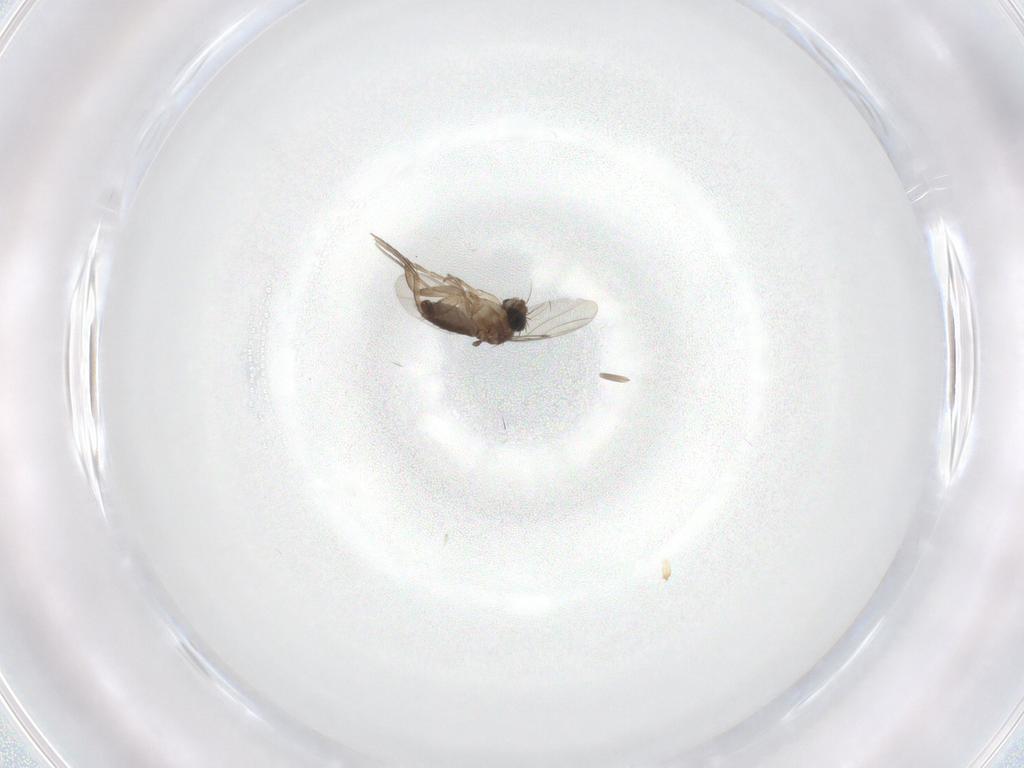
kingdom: Animalia
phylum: Arthropoda
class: Insecta
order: Diptera
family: Phoridae
